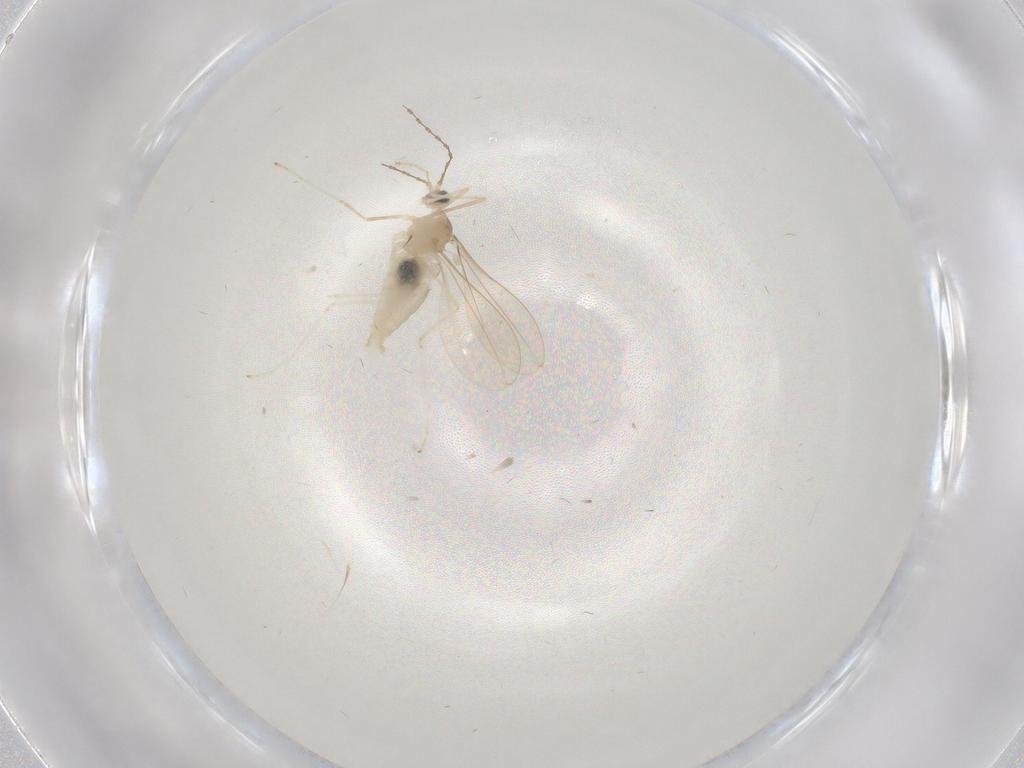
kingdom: Animalia
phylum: Arthropoda
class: Insecta
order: Diptera
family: Cecidomyiidae
